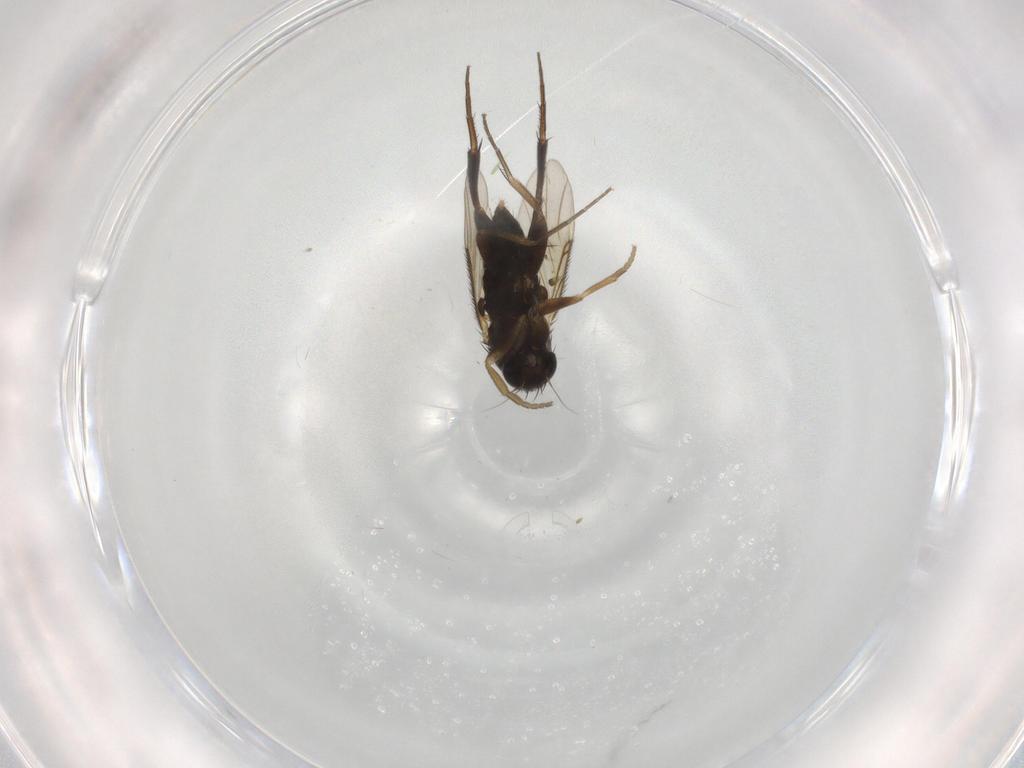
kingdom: Animalia
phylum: Arthropoda
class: Insecta
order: Diptera
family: Phoridae
